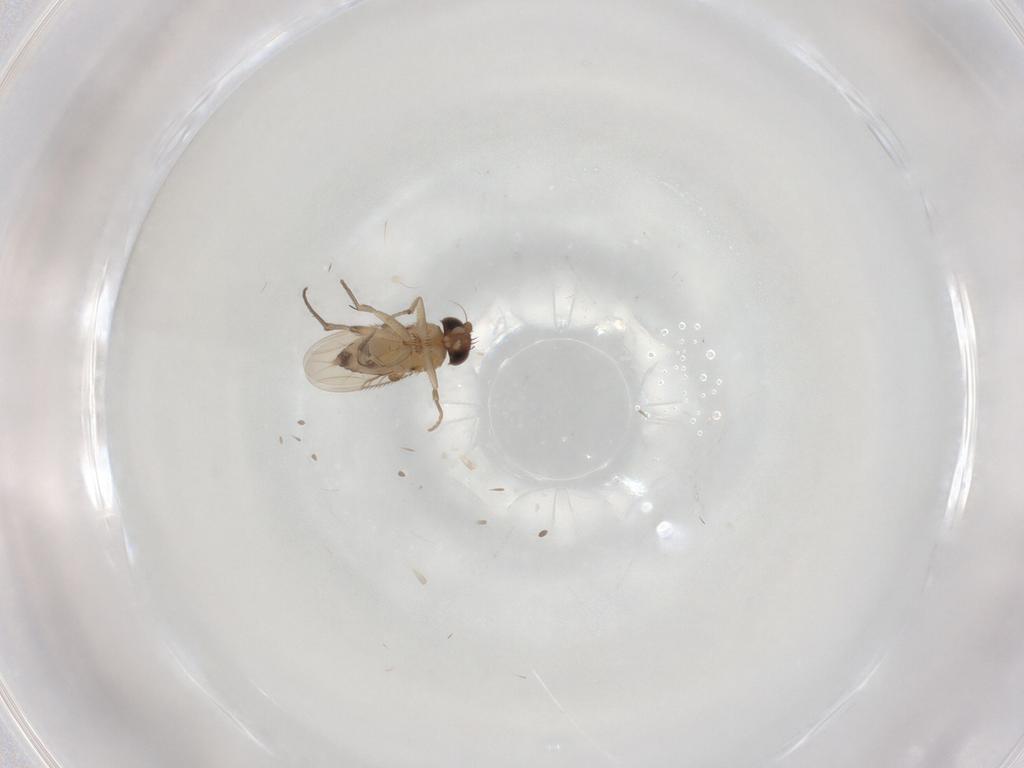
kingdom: Animalia
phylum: Arthropoda
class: Insecta
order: Diptera
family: Phoridae
